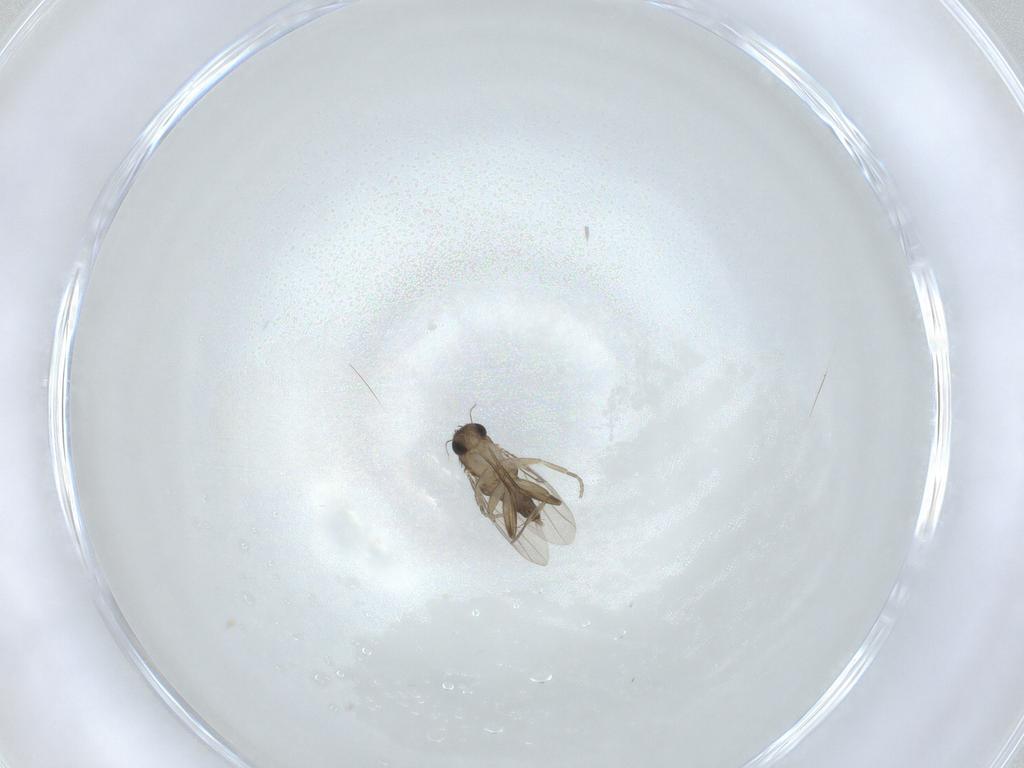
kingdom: Animalia
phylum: Arthropoda
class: Insecta
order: Diptera
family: Phoridae
